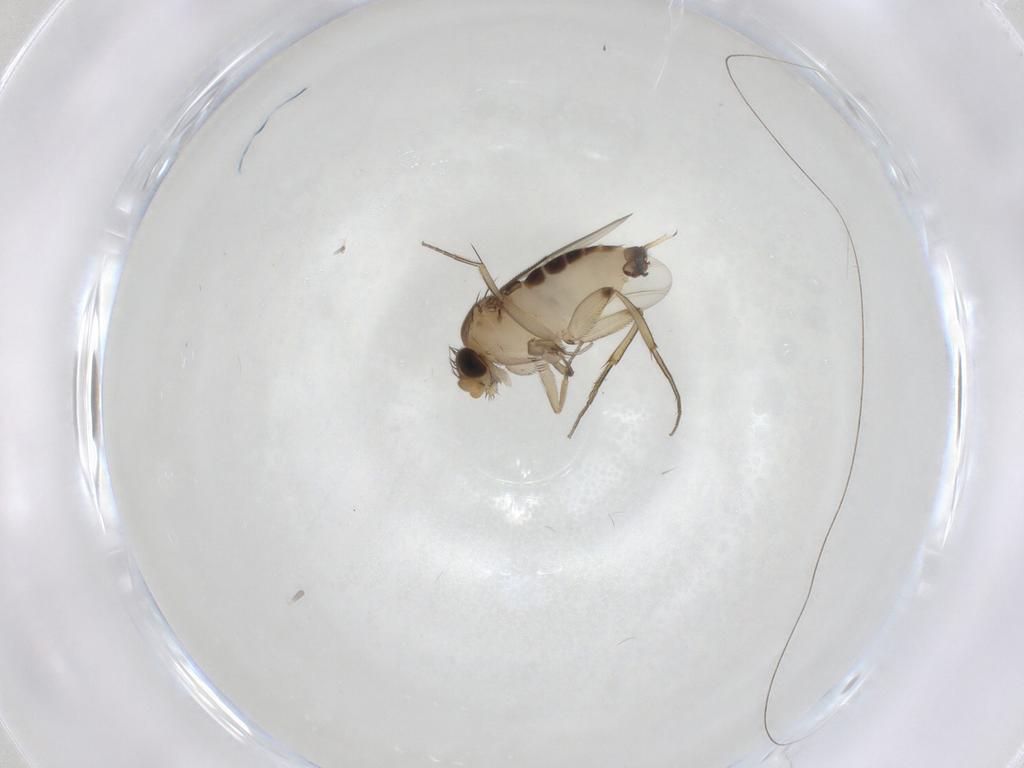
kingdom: Animalia
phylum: Arthropoda
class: Insecta
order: Diptera
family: Phoridae
